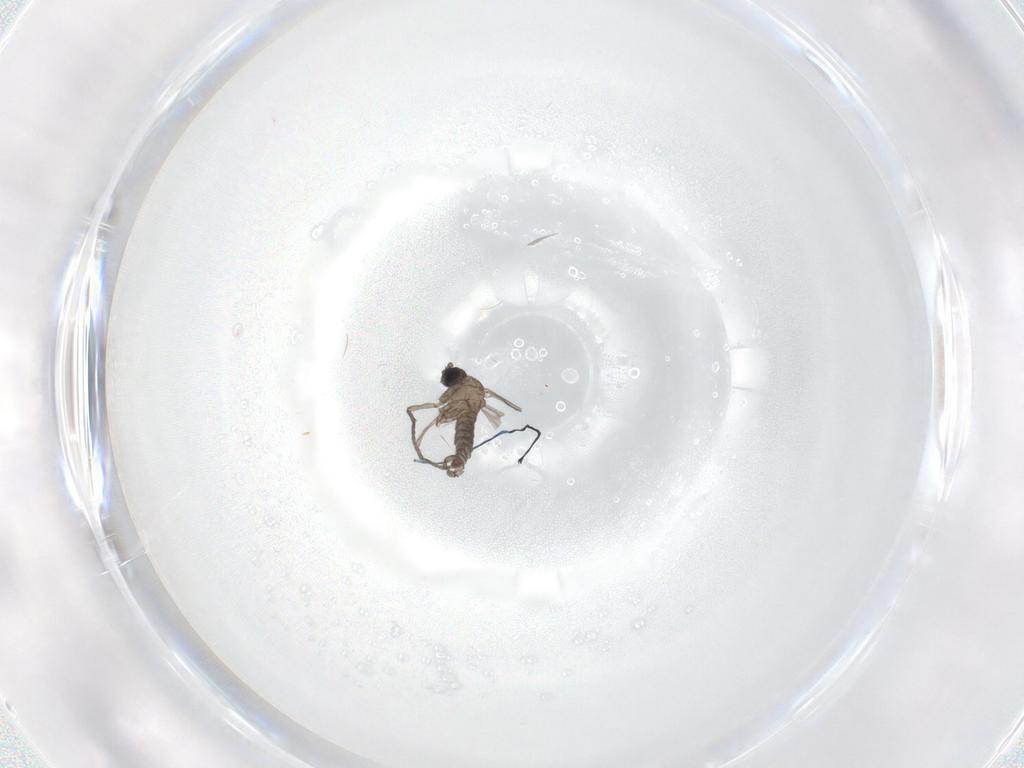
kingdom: Animalia
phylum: Arthropoda
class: Insecta
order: Diptera
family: Sciaridae
